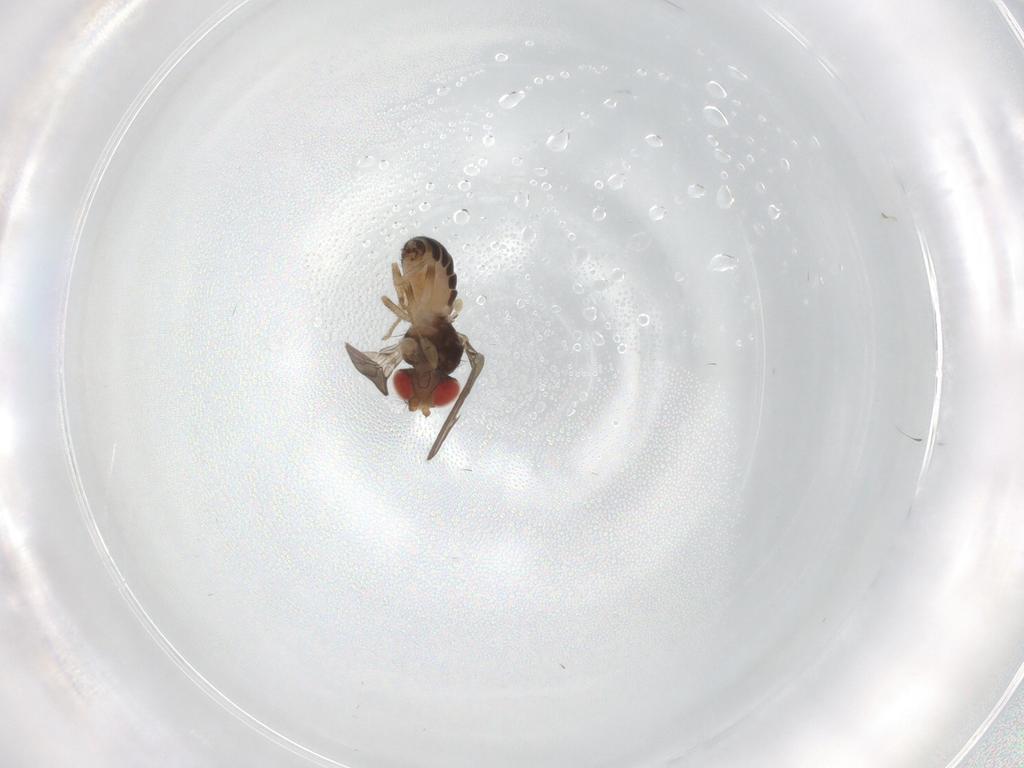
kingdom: Animalia
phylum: Arthropoda
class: Insecta
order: Diptera
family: Drosophilidae
